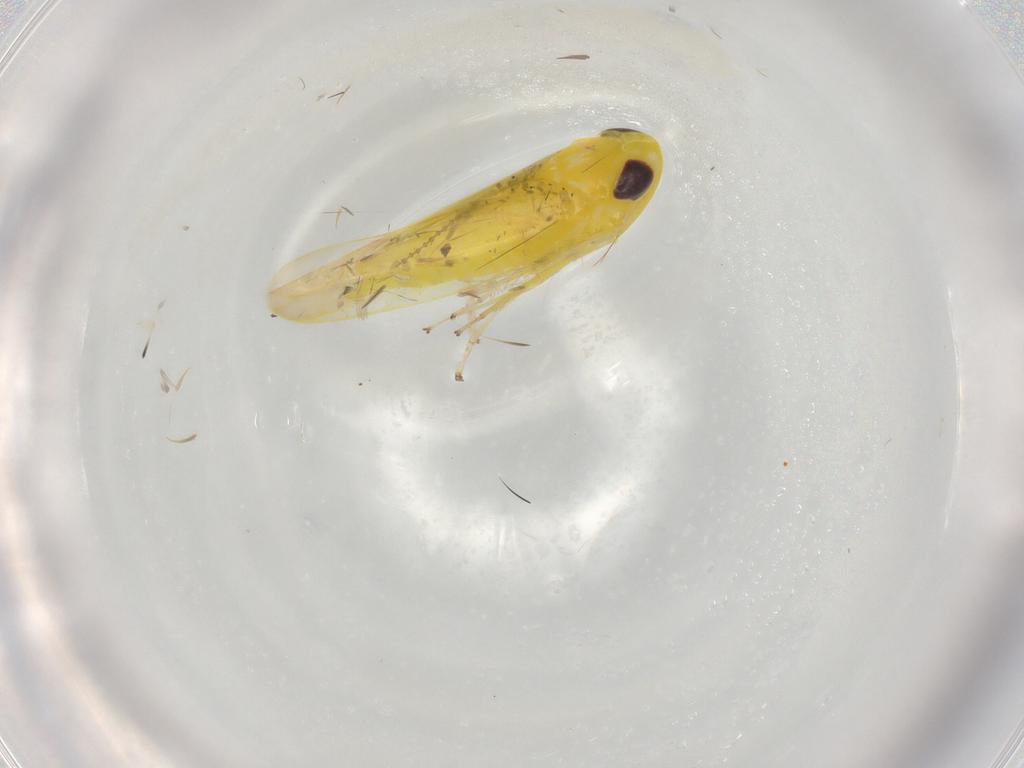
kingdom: Animalia
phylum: Arthropoda
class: Insecta
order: Hemiptera
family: Cicadellidae
